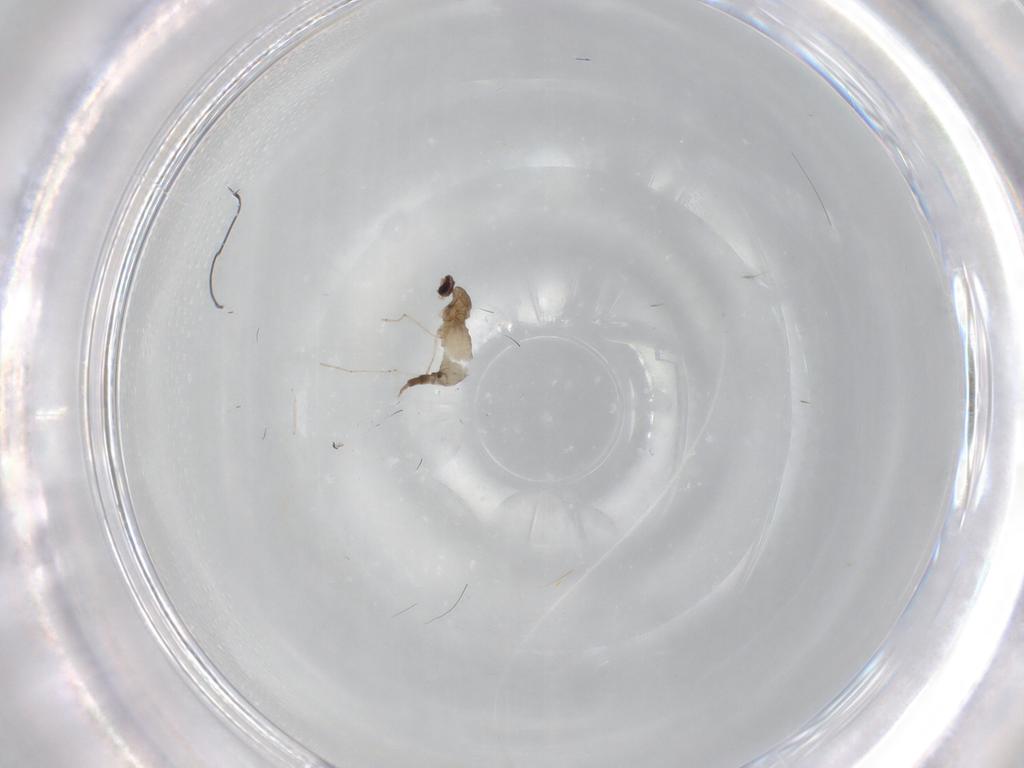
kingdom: Animalia
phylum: Arthropoda
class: Insecta
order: Diptera
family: Cecidomyiidae
